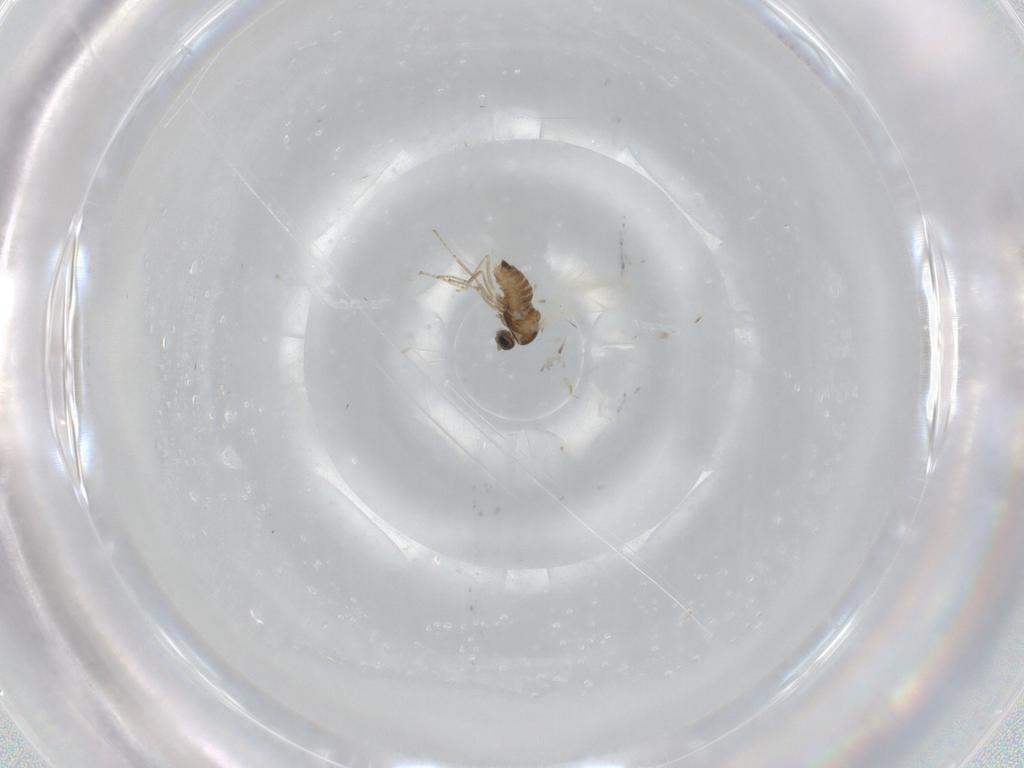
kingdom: Animalia
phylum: Arthropoda
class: Insecta
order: Diptera
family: Cecidomyiidae
